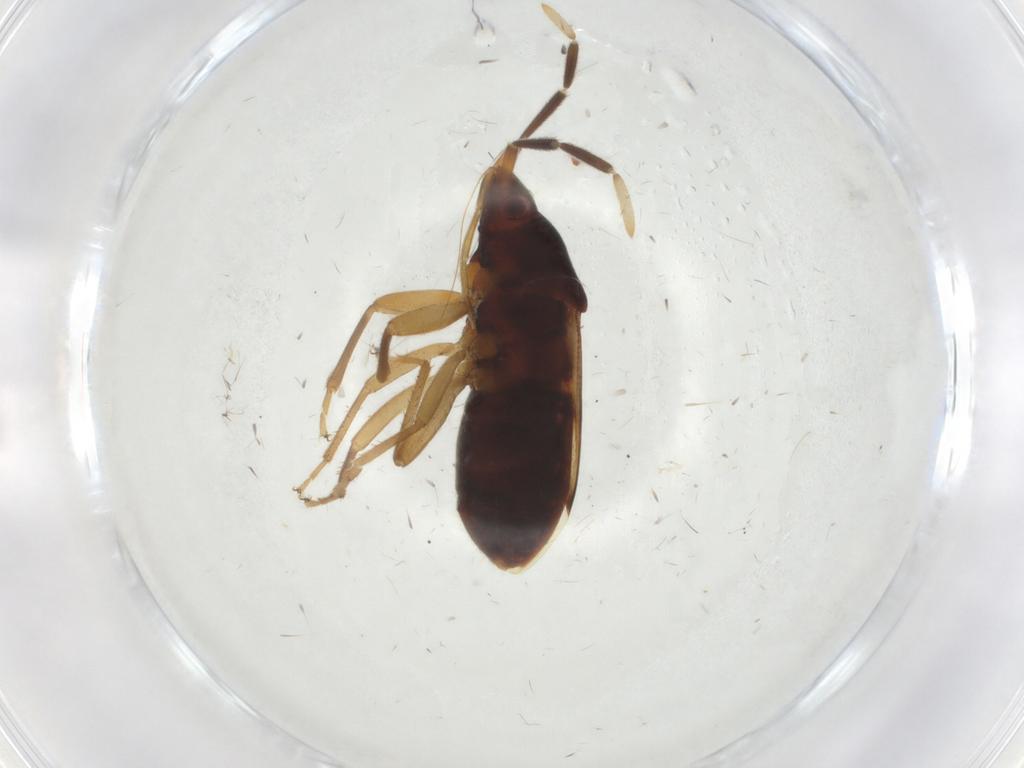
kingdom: Animalia
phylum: Arthropoda
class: Insecta
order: Hemiptera
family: Rhyparochromidae
